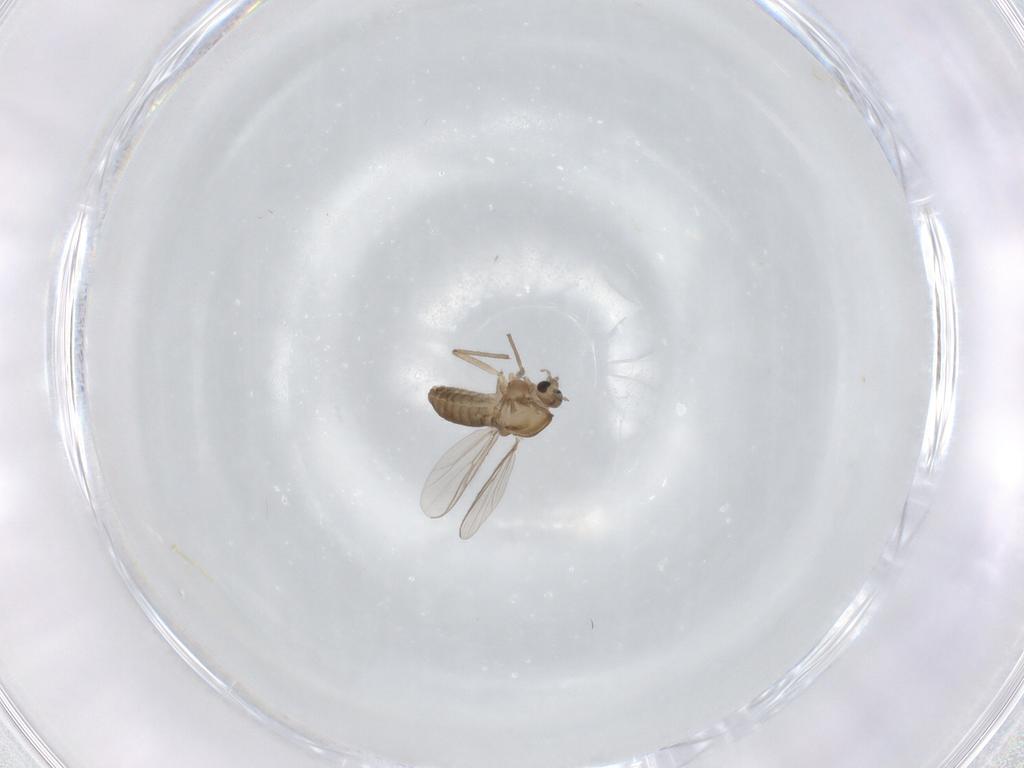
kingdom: Animalia
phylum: Arthropoda
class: Insecta
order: Diptera
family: Chironomidae
